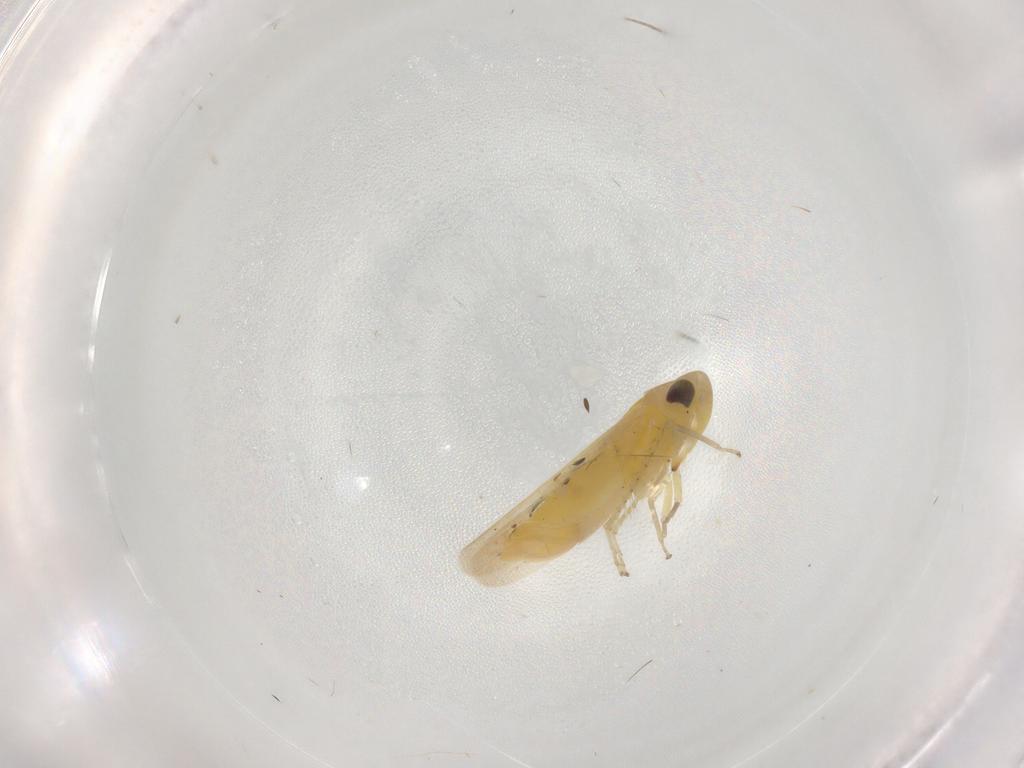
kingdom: Animalia
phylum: Arthropoda
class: Insecta
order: Hemiptera
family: Cicadellidae
